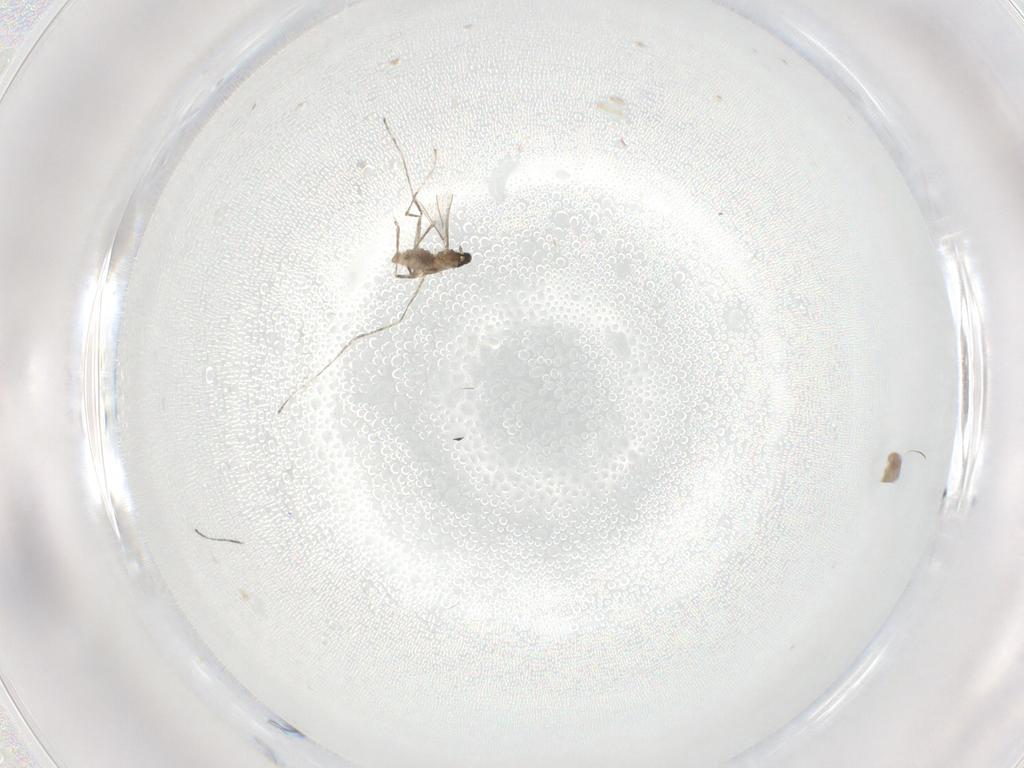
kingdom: Animalia
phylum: Arthropoda
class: Insecta
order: Diptera
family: Cecidomyiidae
